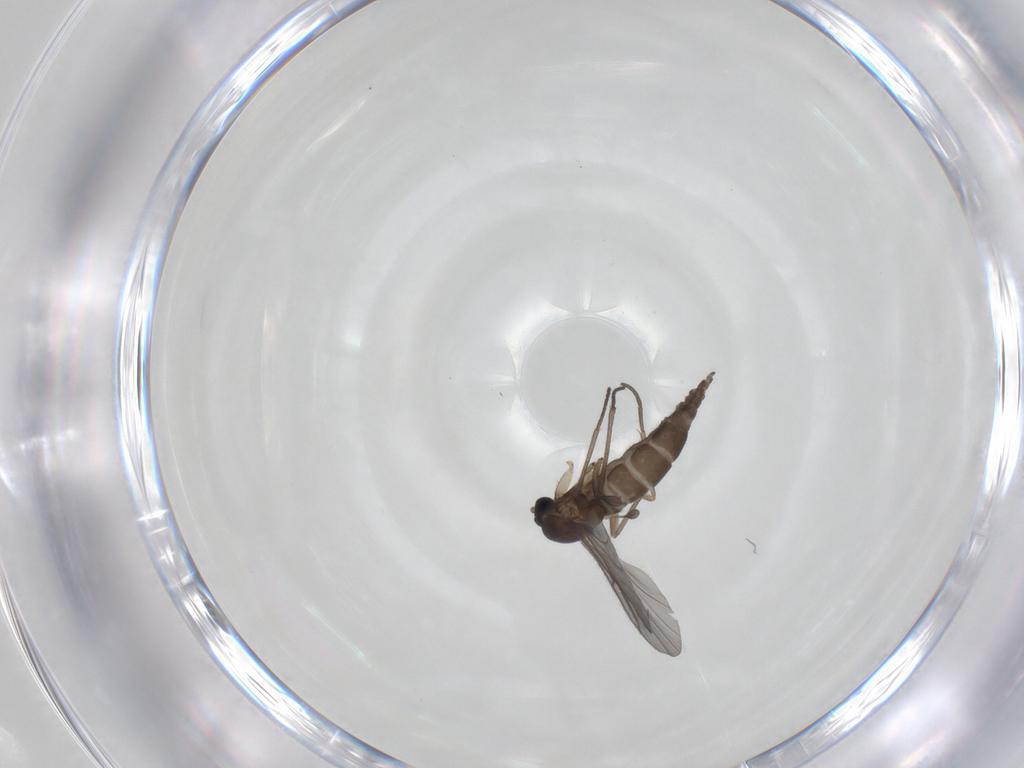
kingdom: Animalia
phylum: Arthropoda
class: Insecta
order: Diptera
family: Sciaridae
